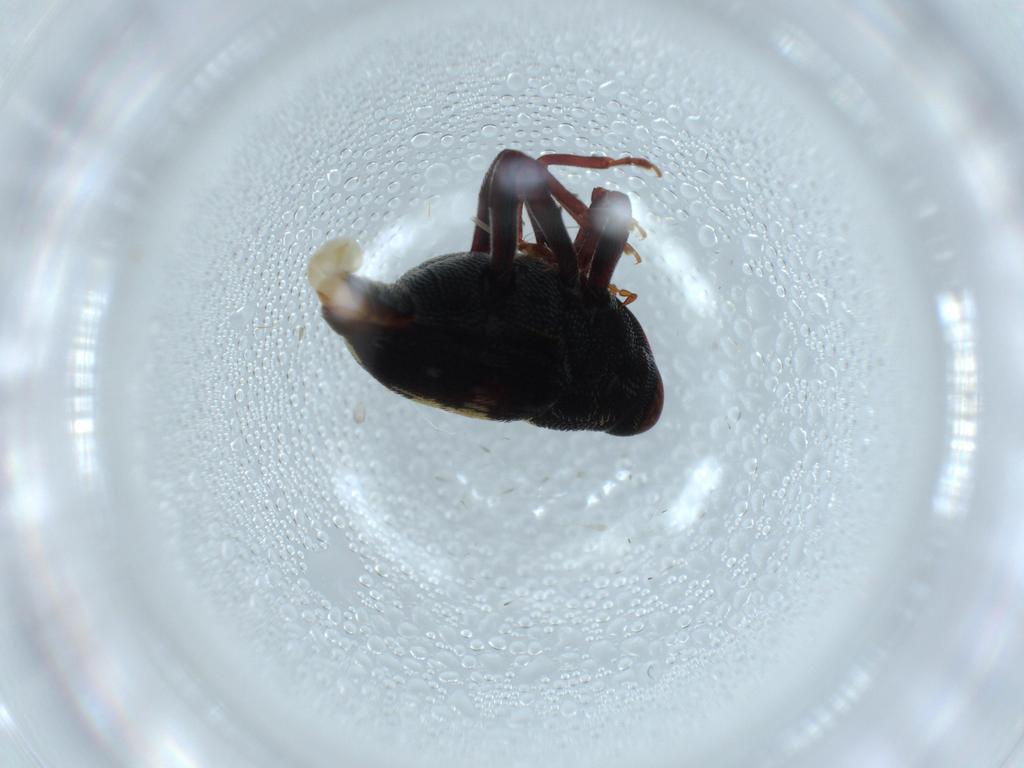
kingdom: Animalia
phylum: Arthropoda
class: Insecta
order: Coleoptera
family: Curculionidae
